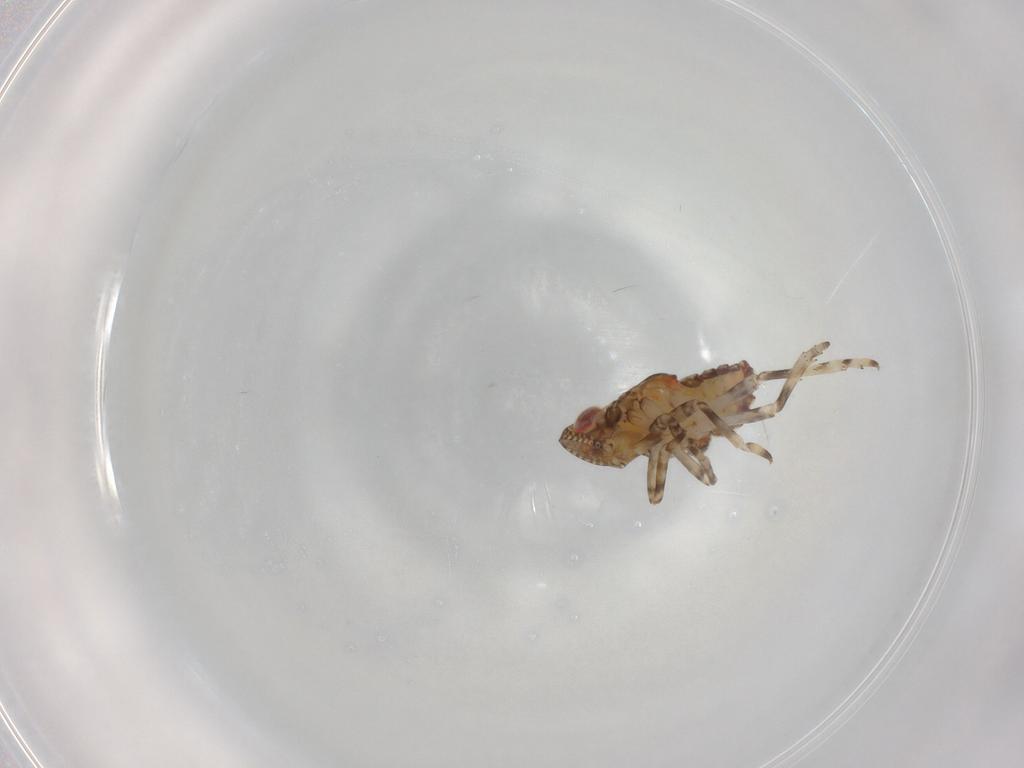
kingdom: Animalia
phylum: Arthropoda
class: Insecta
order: Hemiptera
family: Tropiduchidae
